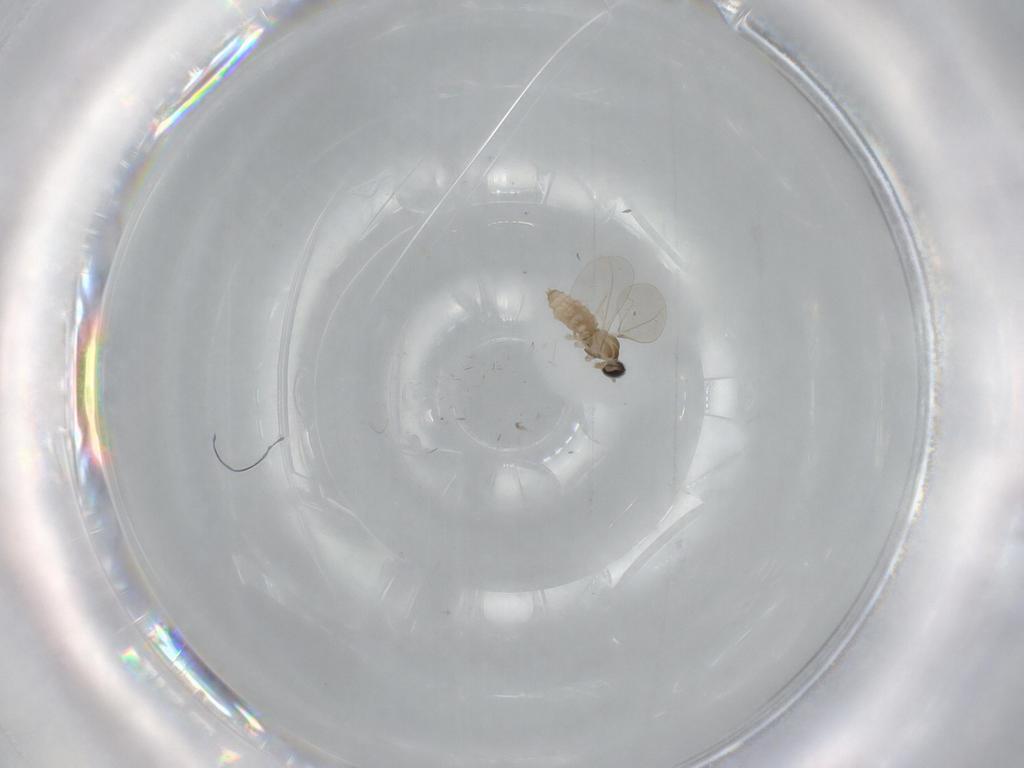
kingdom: Animalia
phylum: Arthropoda
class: Insecta
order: Diptera
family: Cecidomyiidae
